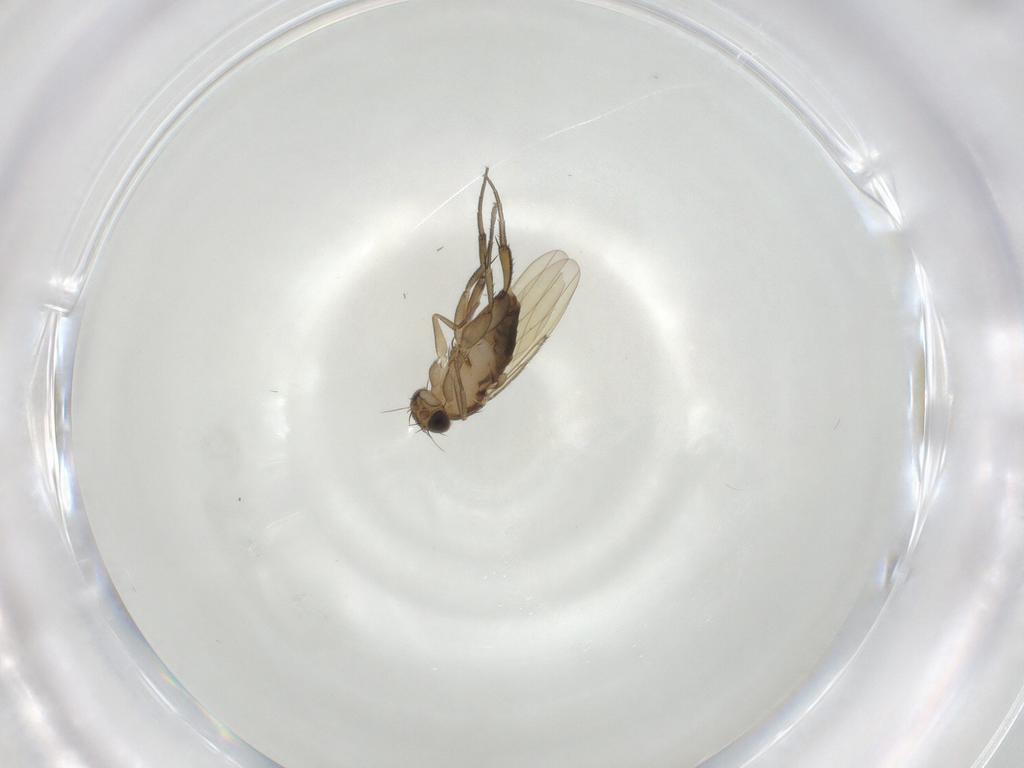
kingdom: Animalia
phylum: Arthropoda
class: Insecta
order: Diptera
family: Phoridae
